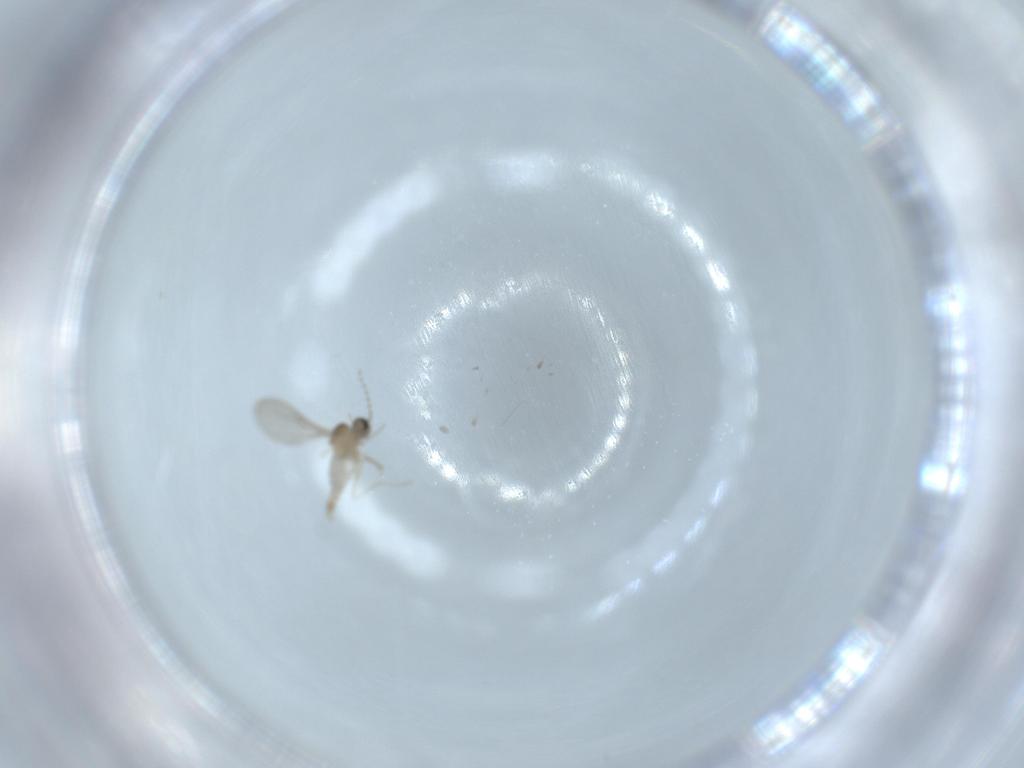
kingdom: Animalia
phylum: Arthropoda
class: Insecta
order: Diptera
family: Cecidomyiidae
